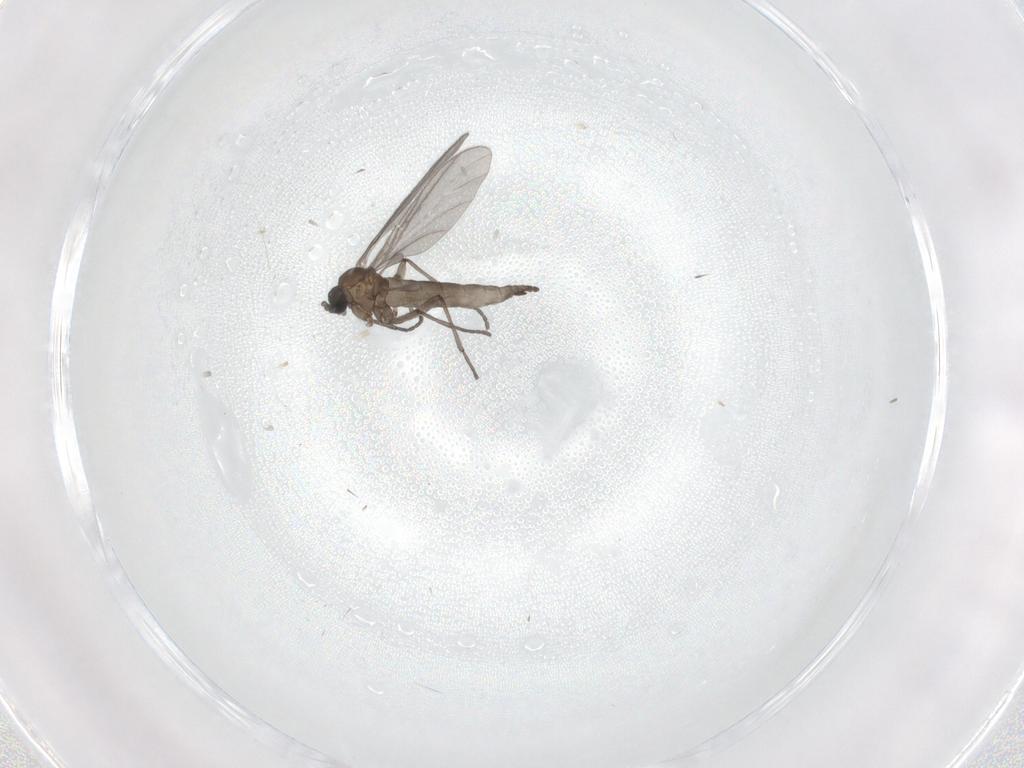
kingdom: Animalia
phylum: Arthropoda
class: Insecta
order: Diptera
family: Sciaridae
